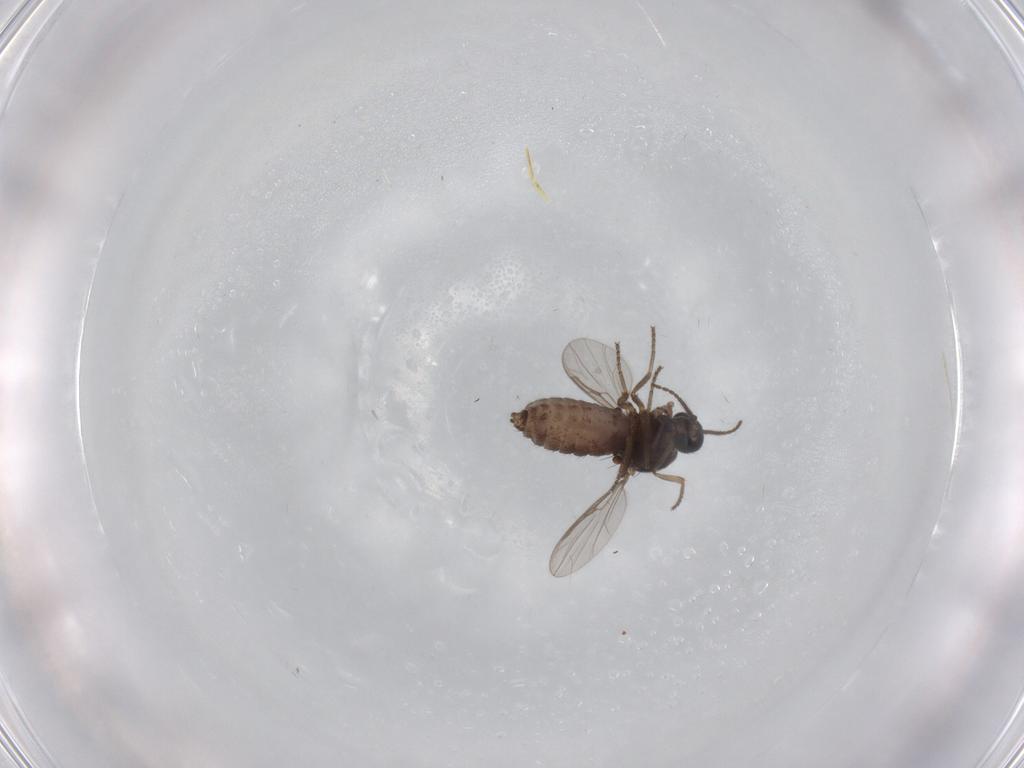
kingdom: Animalia
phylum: Arthropoda
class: Insecta
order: Diptera
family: Ceratopogonidae
